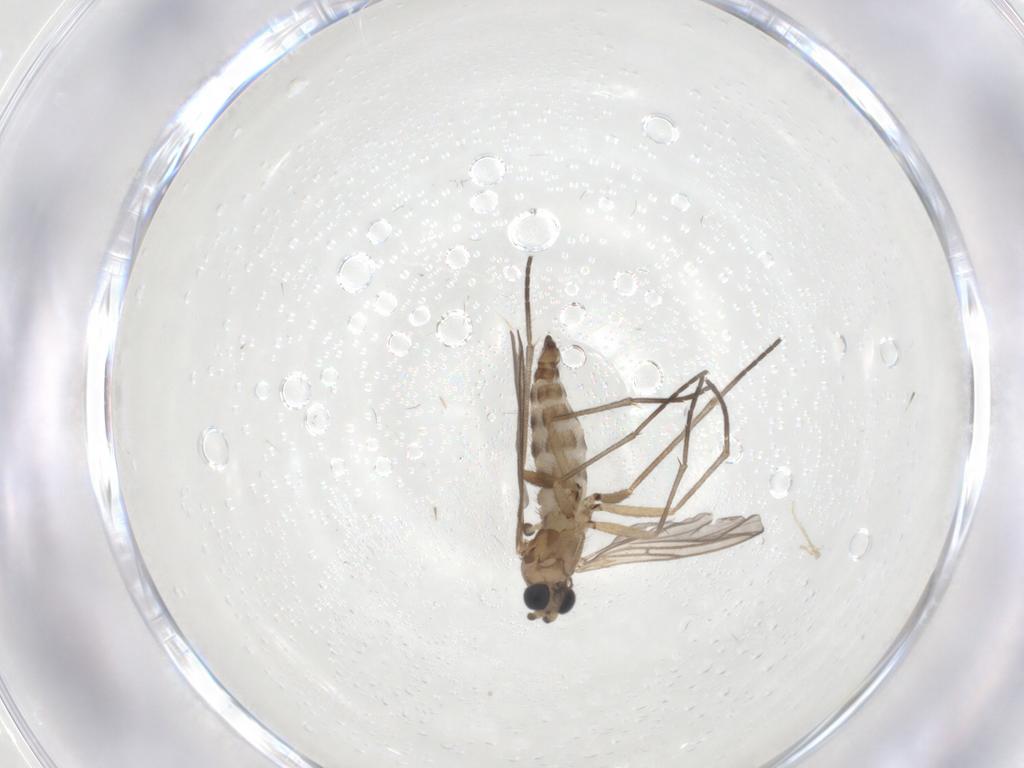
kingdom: Animalia
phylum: Arthropoda
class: Insecta
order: Diptera
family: Sciaridae
